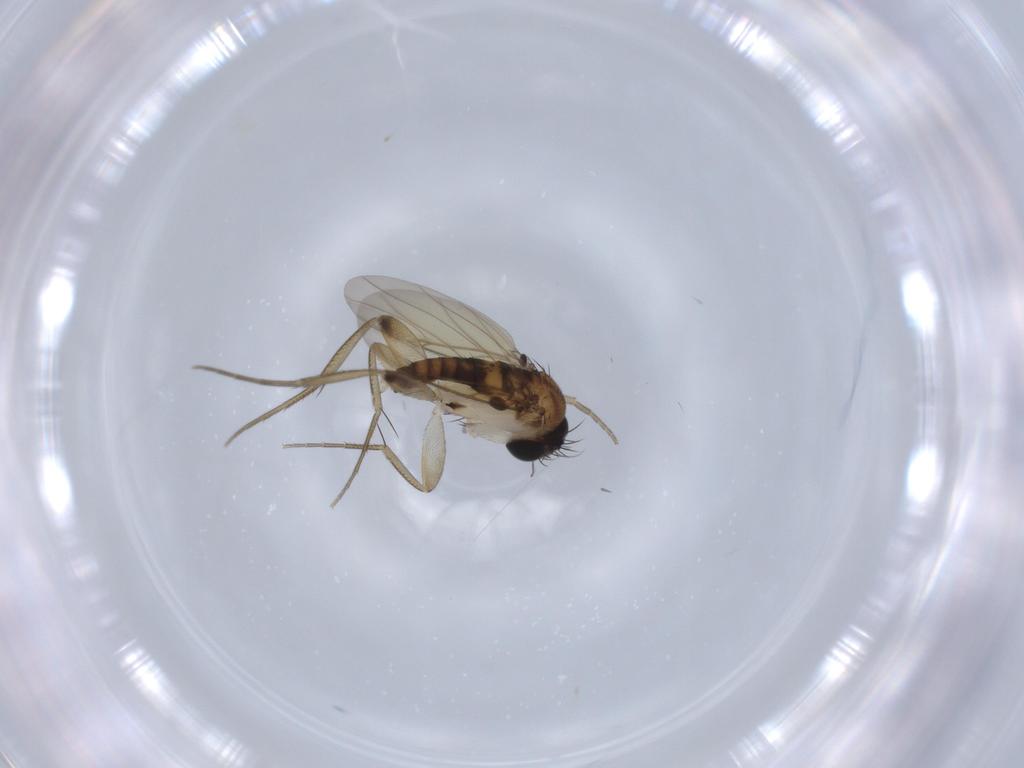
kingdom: Animalia
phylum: Arthropoda
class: Insecta
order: Diptera
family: Phoridae
